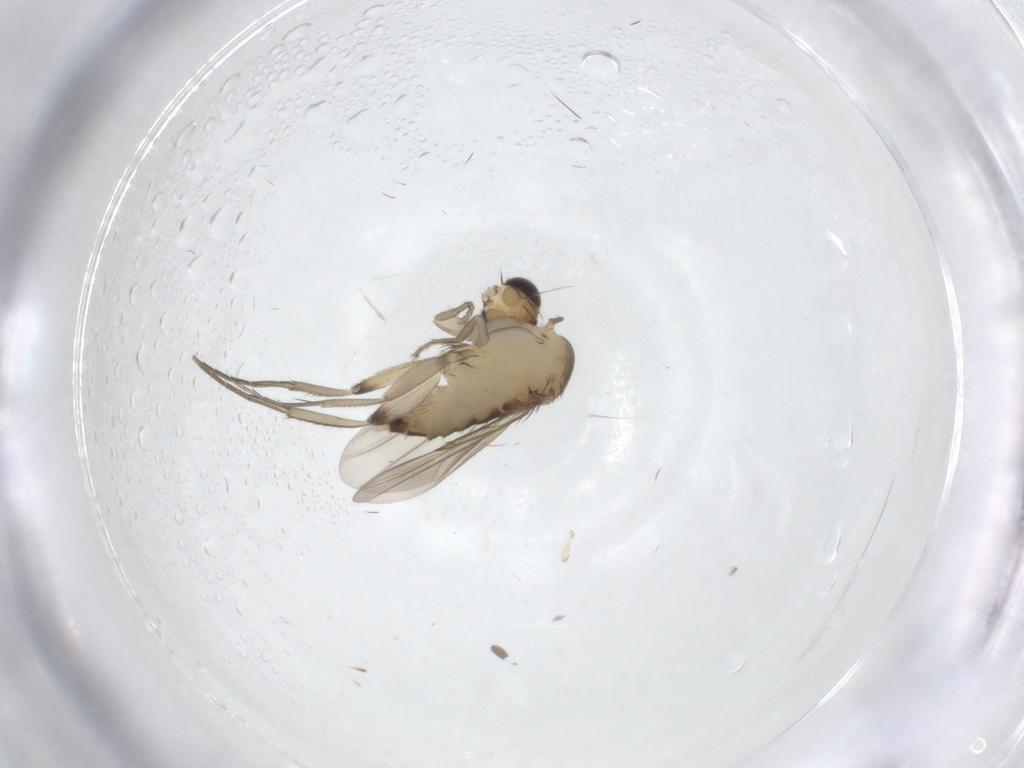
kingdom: Animalia
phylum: Arthropoda
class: Insecta
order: Diptera
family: Phoridae
